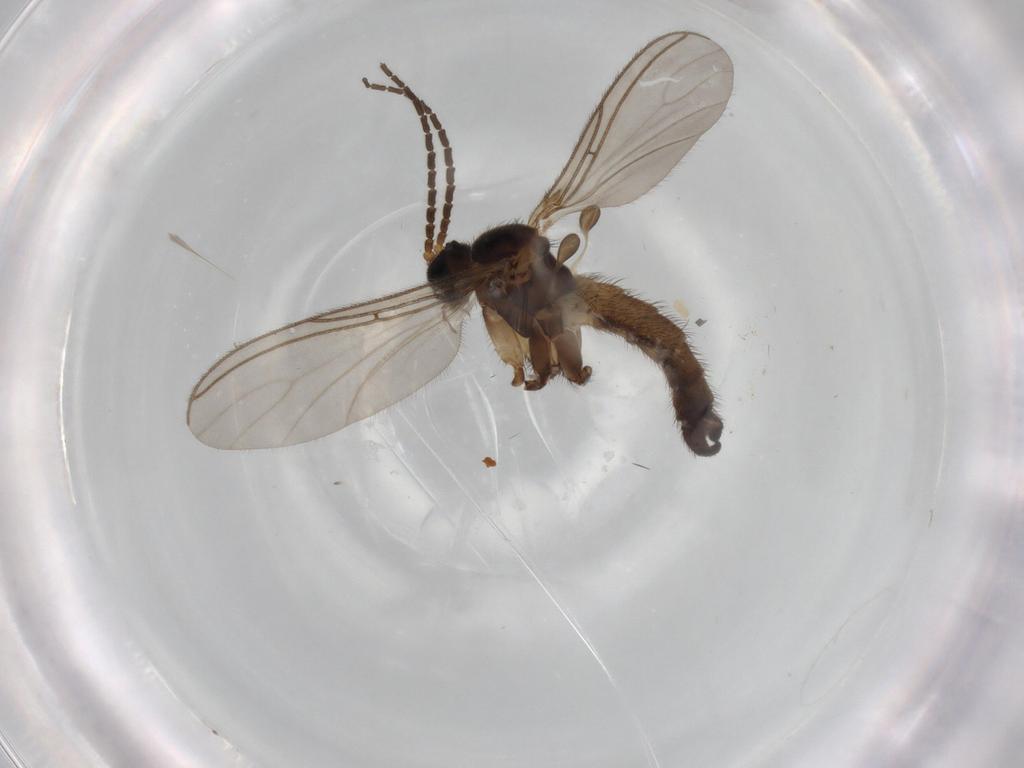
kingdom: Animalia
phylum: Arthropoda
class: Insecta
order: Diptera
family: Sciaridae
